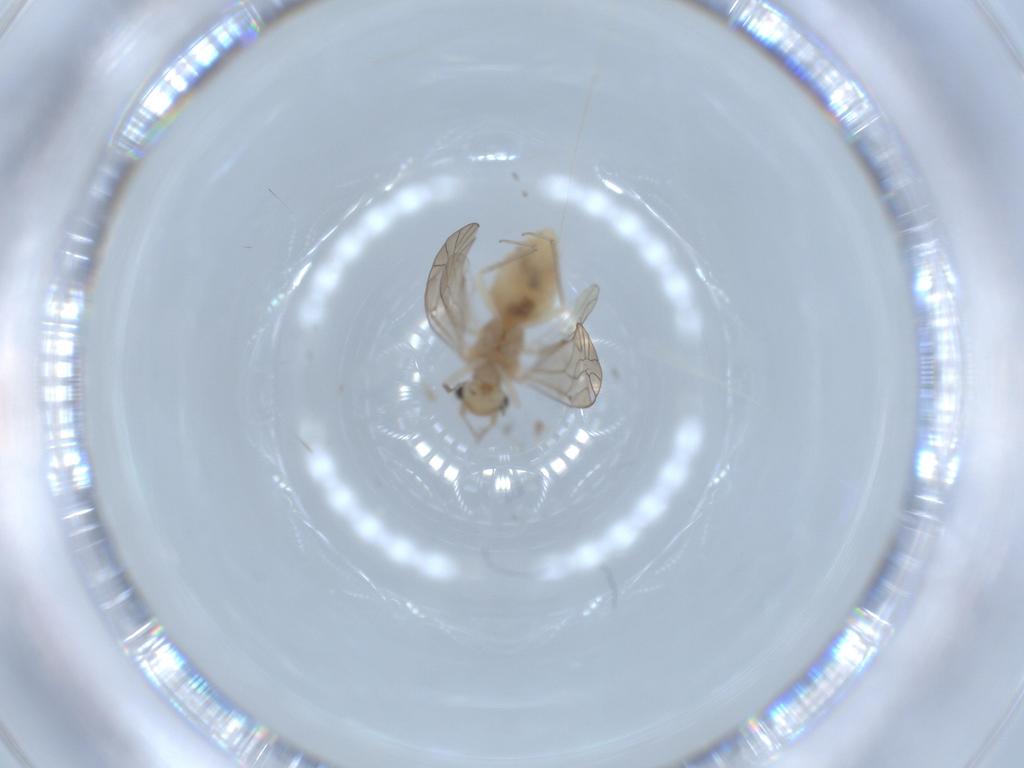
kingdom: Animalia
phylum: Arthropoda
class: Insecta
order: Psocodea
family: Lachesillidae
